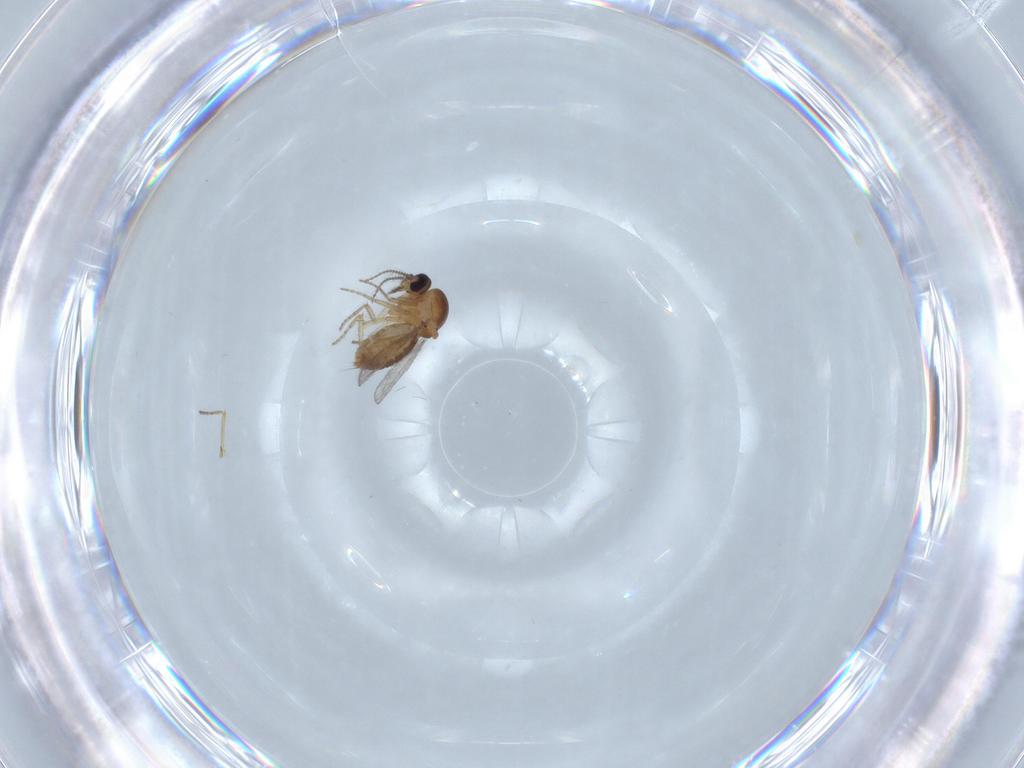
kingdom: Animalia
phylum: Arthropoda
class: Insecta
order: Diptera
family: Ceratopogonidae
